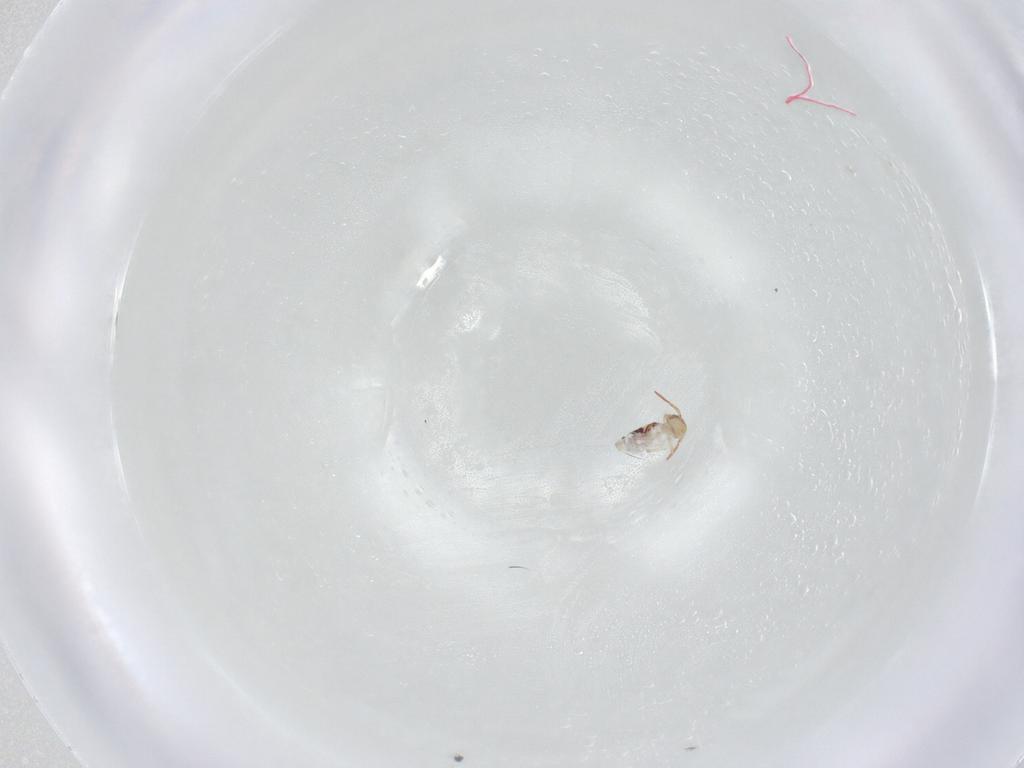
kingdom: Animalia
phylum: Arthropoda
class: Collembola
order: Symphypleona
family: Bourletiellidae
